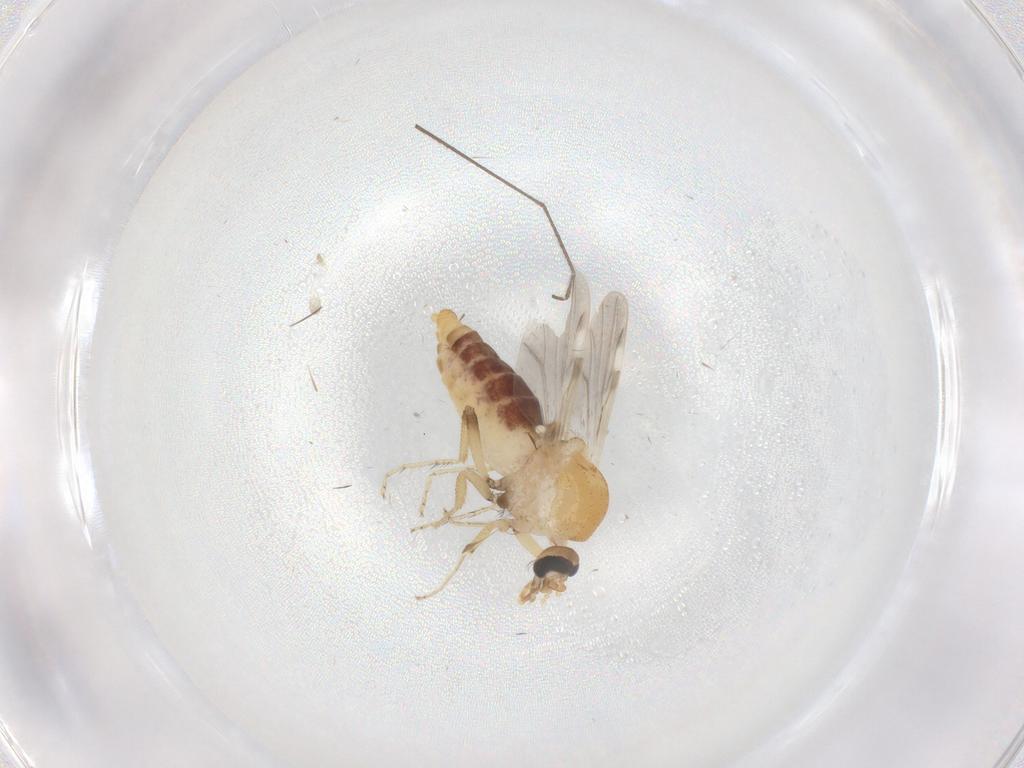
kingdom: Animalia
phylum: Arthropoda
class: Insecta
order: Diptera
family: Ceratopogonidae
